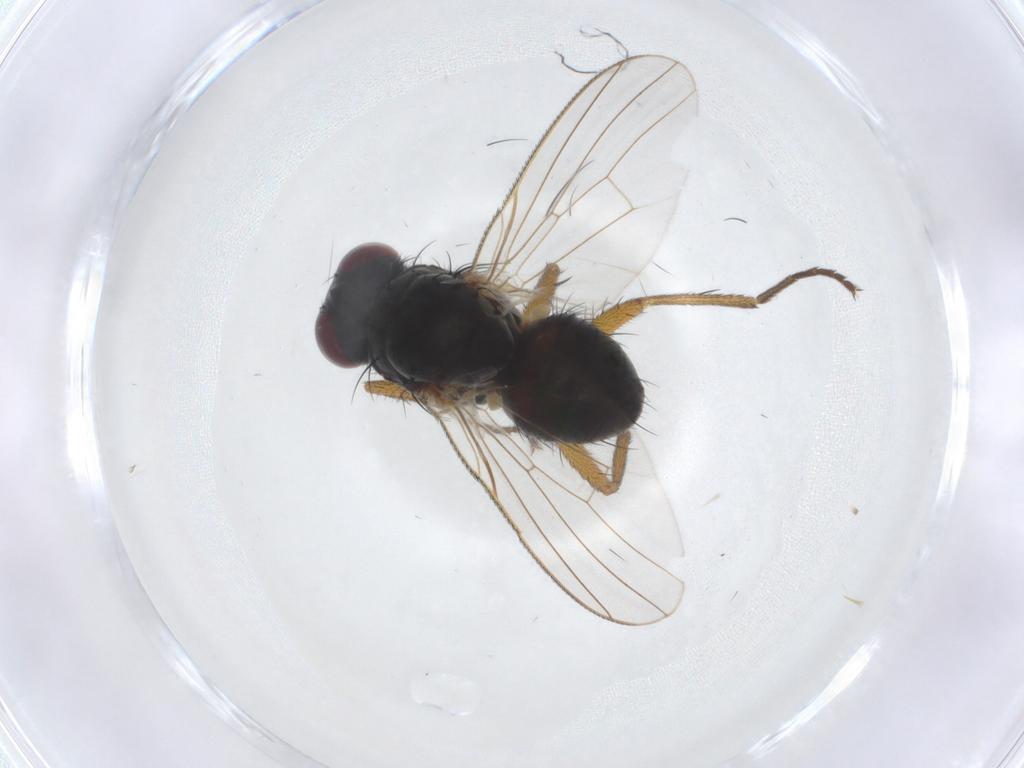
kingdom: Animalia
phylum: Arthropoda
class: Insecta
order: Diptera
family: Muscidae
